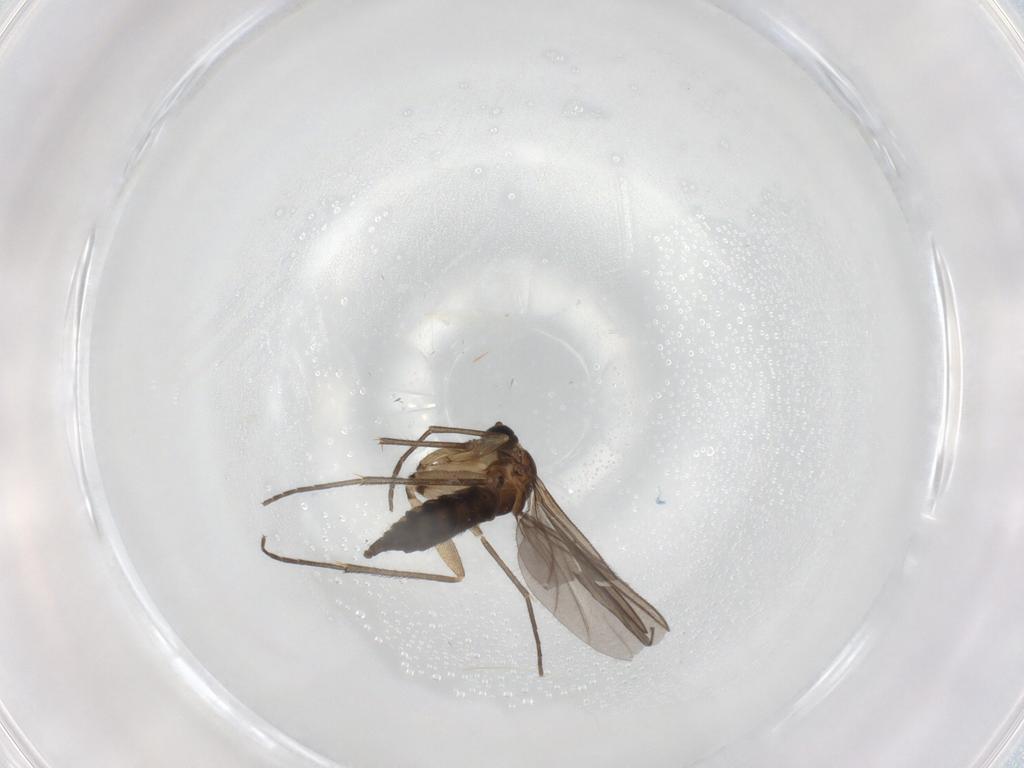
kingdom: Animalia
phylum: Arthropoda
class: Insecta
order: Diptera
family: Sciaridae
